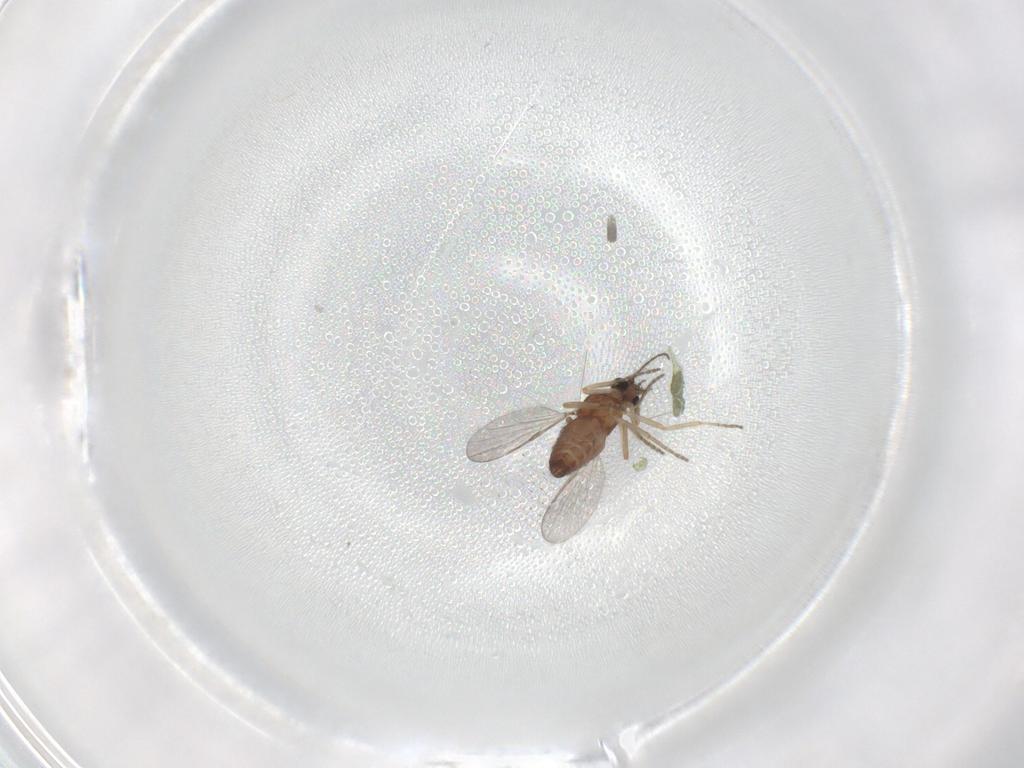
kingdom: Animalia
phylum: Arthropoda
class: Insecta
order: Diptera
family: Ceratopogonidae
